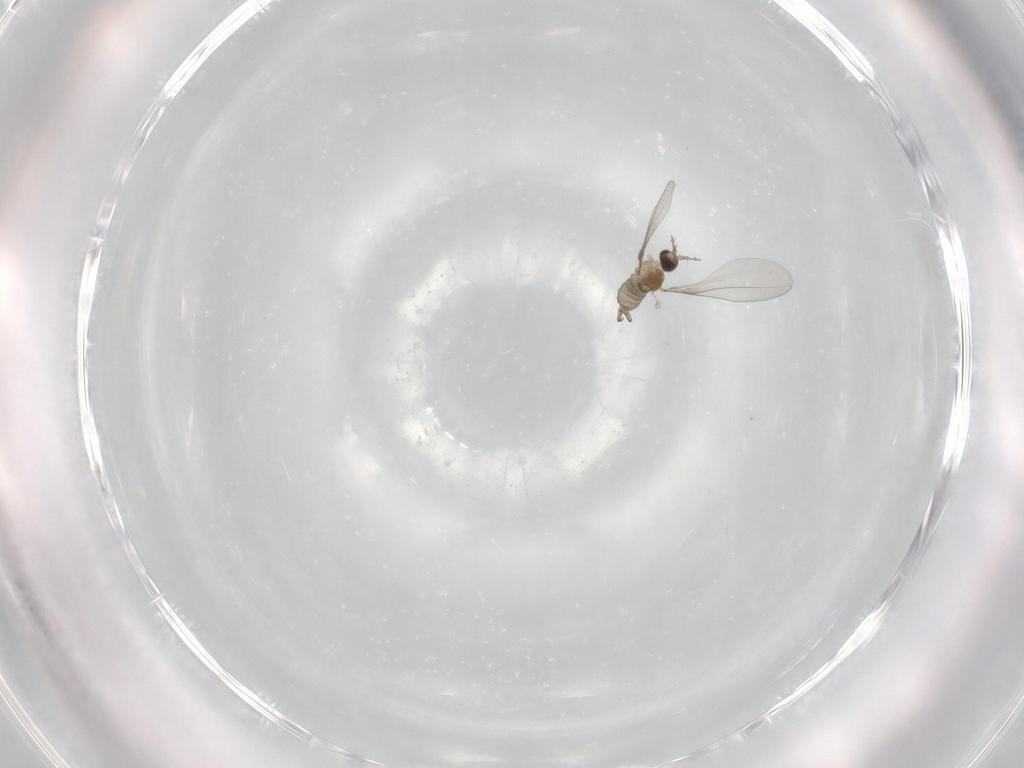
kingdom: Animalia
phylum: Arthropoda
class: Insecta
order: Diptera
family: Cecidomyiidae
